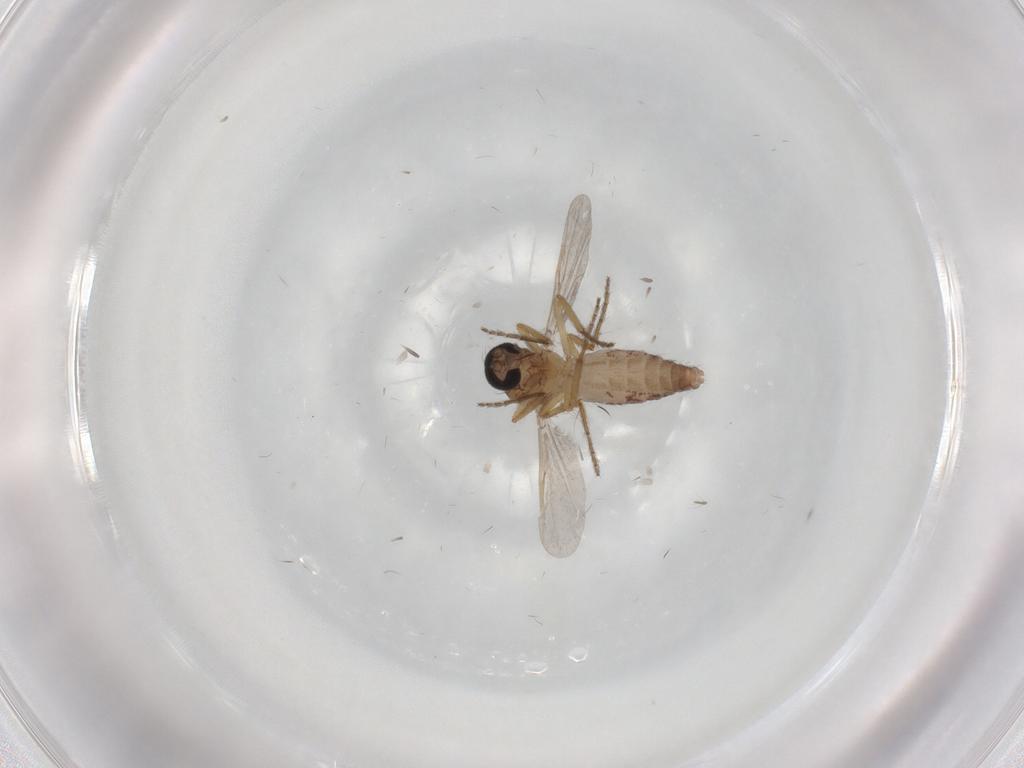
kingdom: Animalia
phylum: Arthropoda
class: Insecta
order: Diptera
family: Ceratopogonidae
